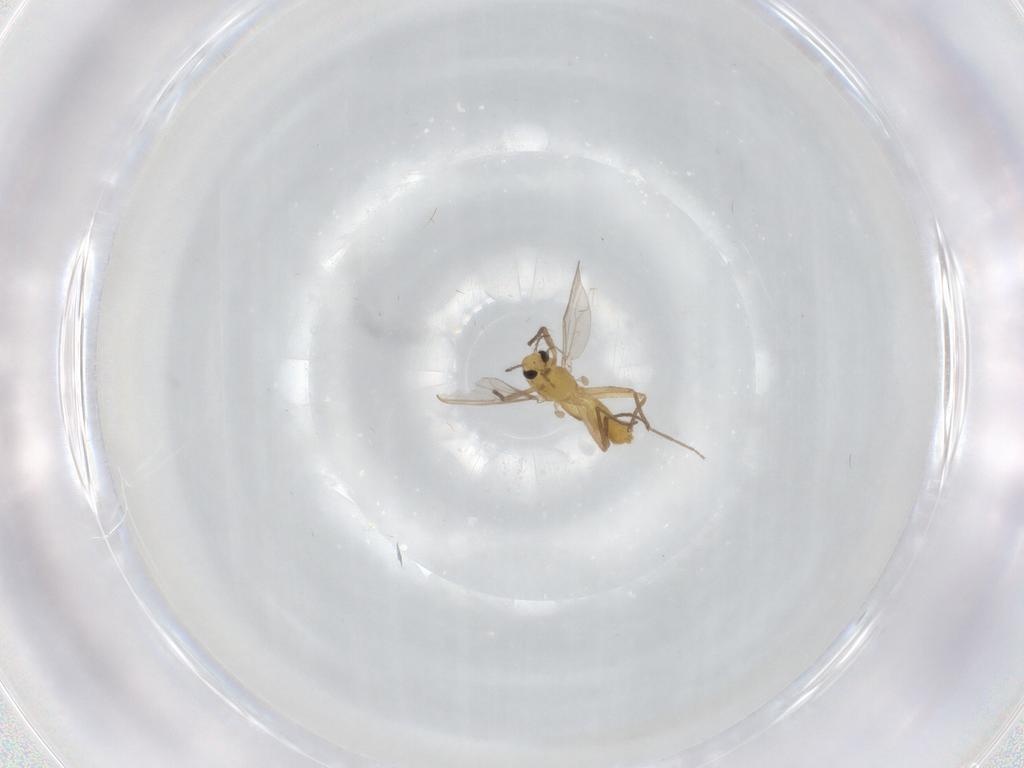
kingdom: Animalia
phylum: Arthropoda
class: Insecta
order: Diptera
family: Chironomidae
